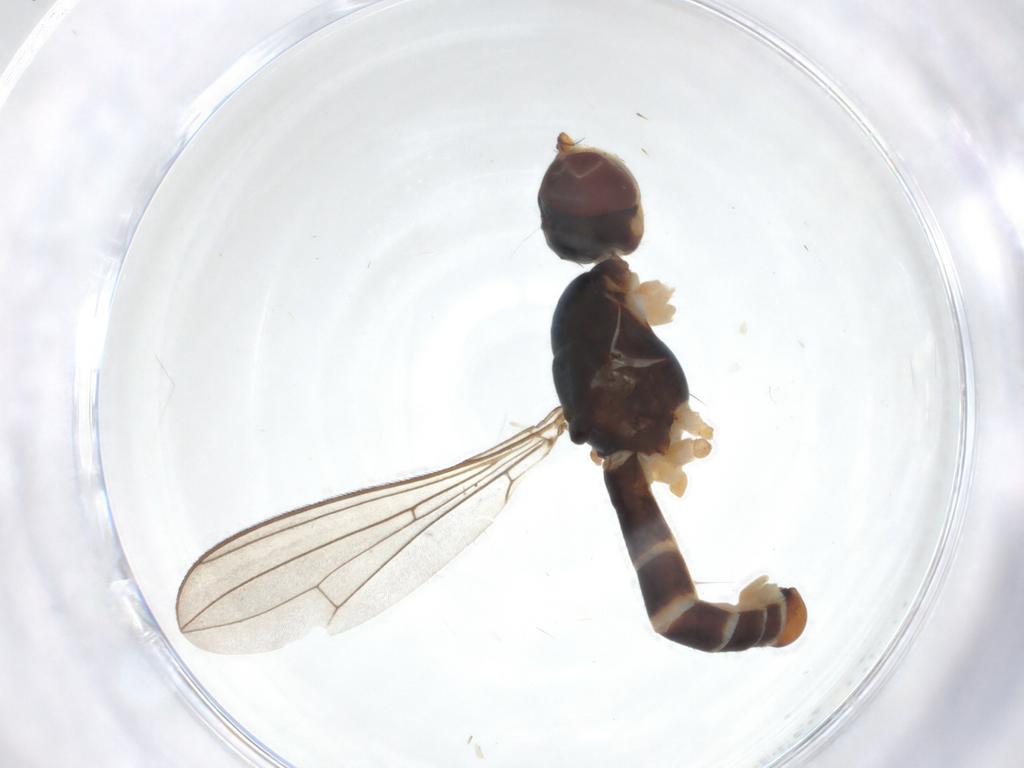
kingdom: Animalia
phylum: Arthropoda
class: Insecta
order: Diptera
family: Micropezidae
